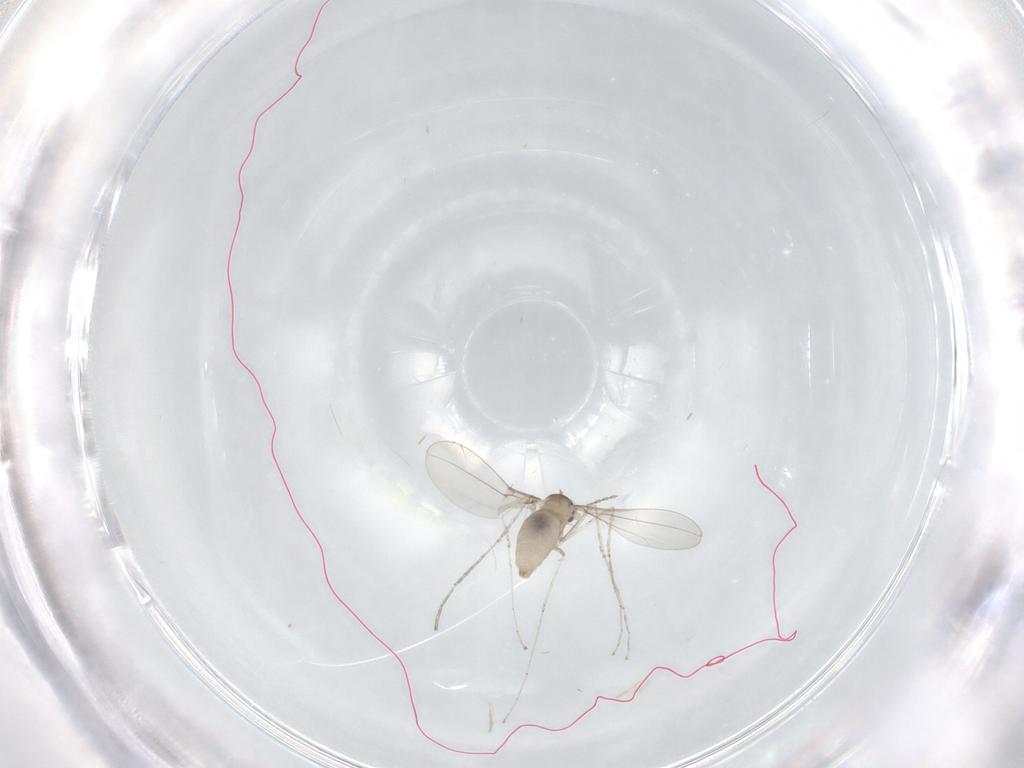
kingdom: Animalia
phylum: Arthropoda
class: Insecta
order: Diptera
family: Cecidomyiidae
